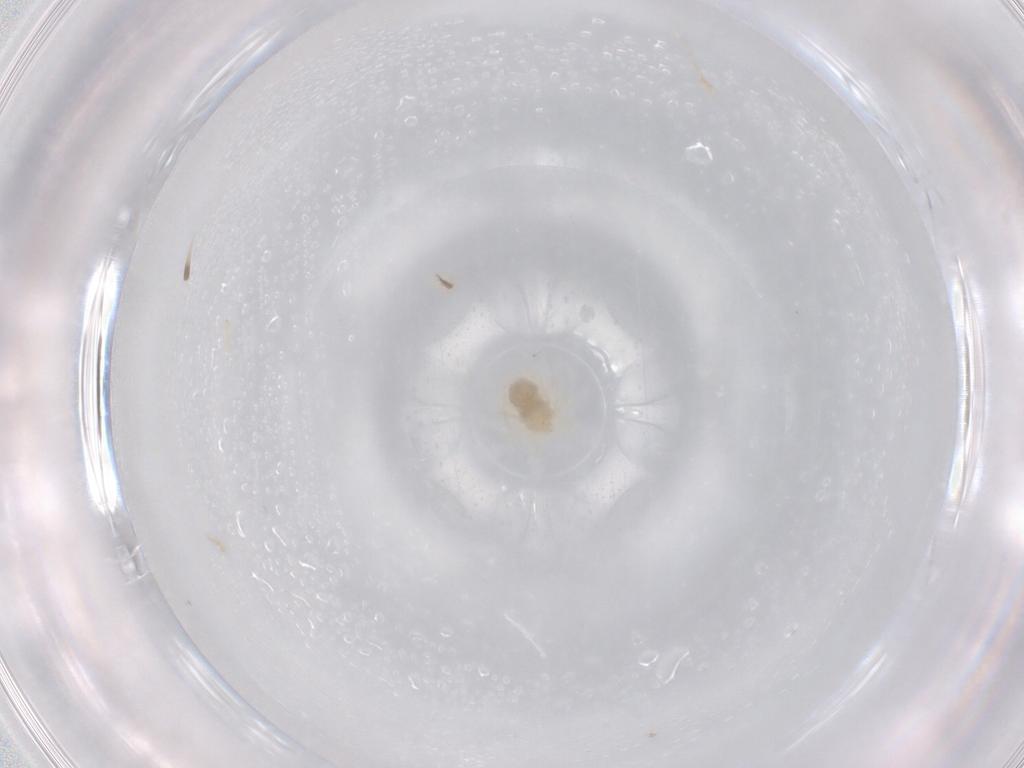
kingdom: Animalia
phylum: Arthropoda
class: Arachnida
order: Trombidiformes
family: Anystidae
